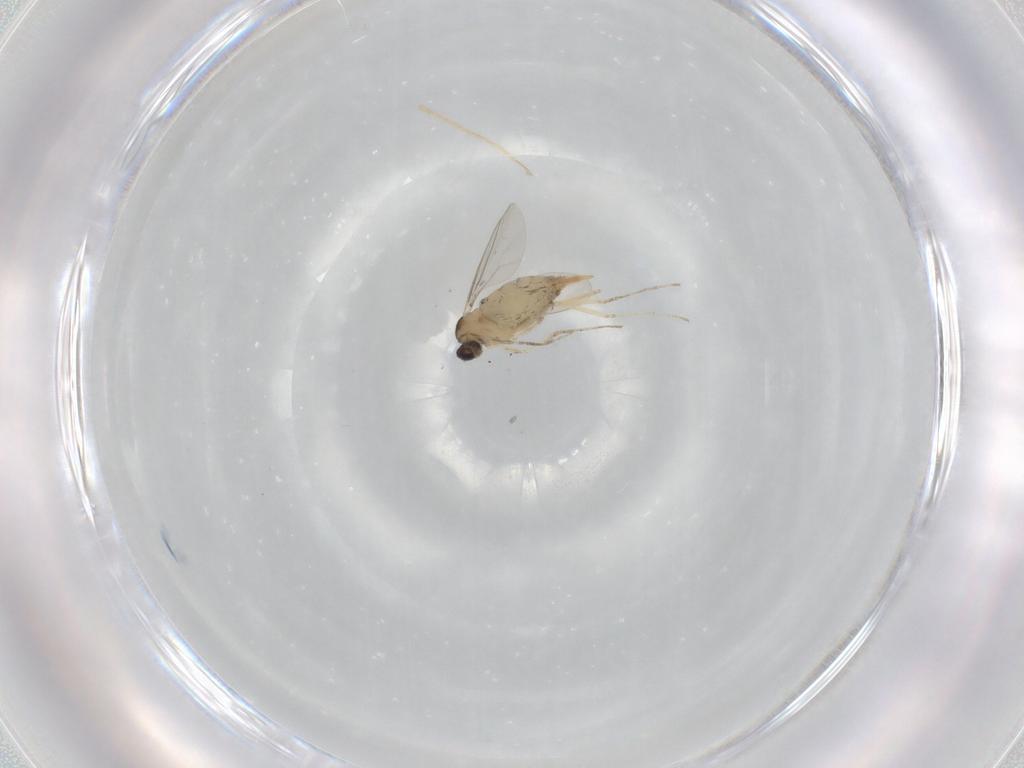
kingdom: Animalia
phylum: Arthropoda
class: Insecta
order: Diptera
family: Cecidomyiidae
